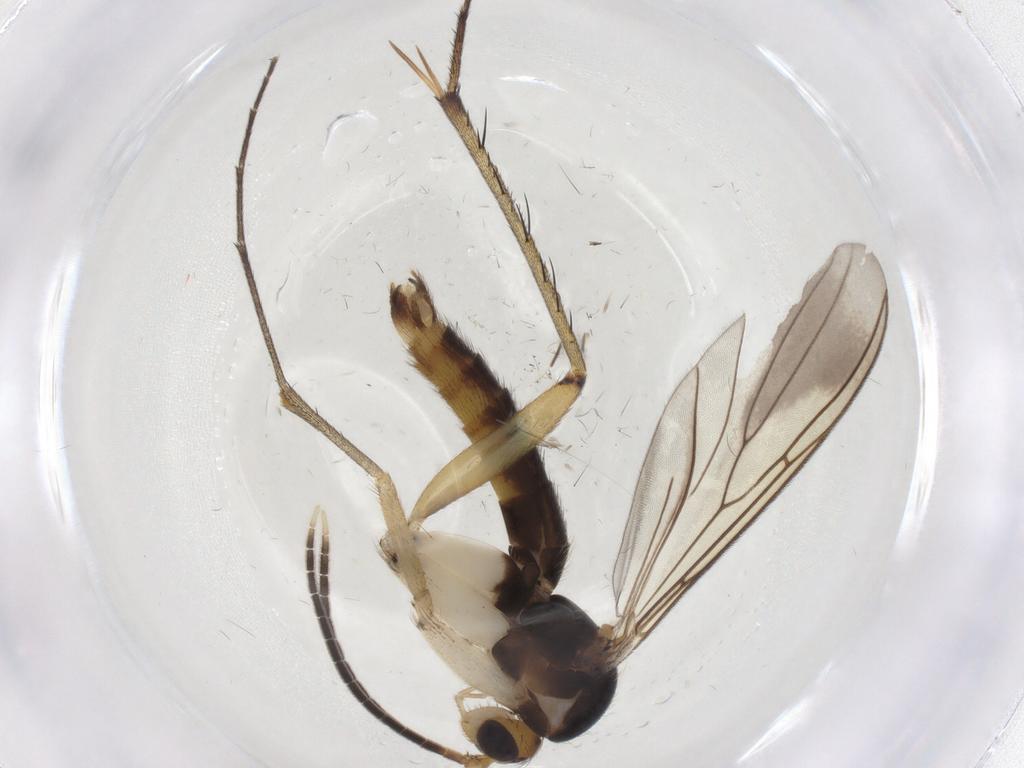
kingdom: Animalia
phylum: Arthropoda
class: Insecta
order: Diptera
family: Mycetophilidae
